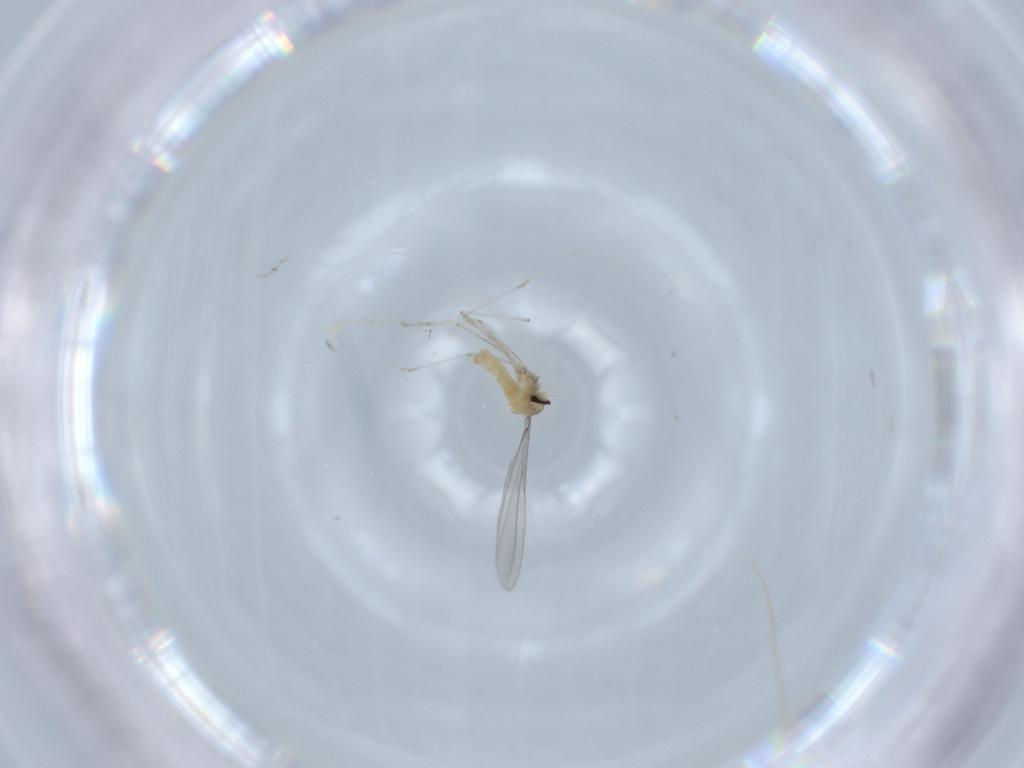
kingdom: Animalia
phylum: Arthropoda
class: Insecta
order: Diptera
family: Cecidomyiidae
